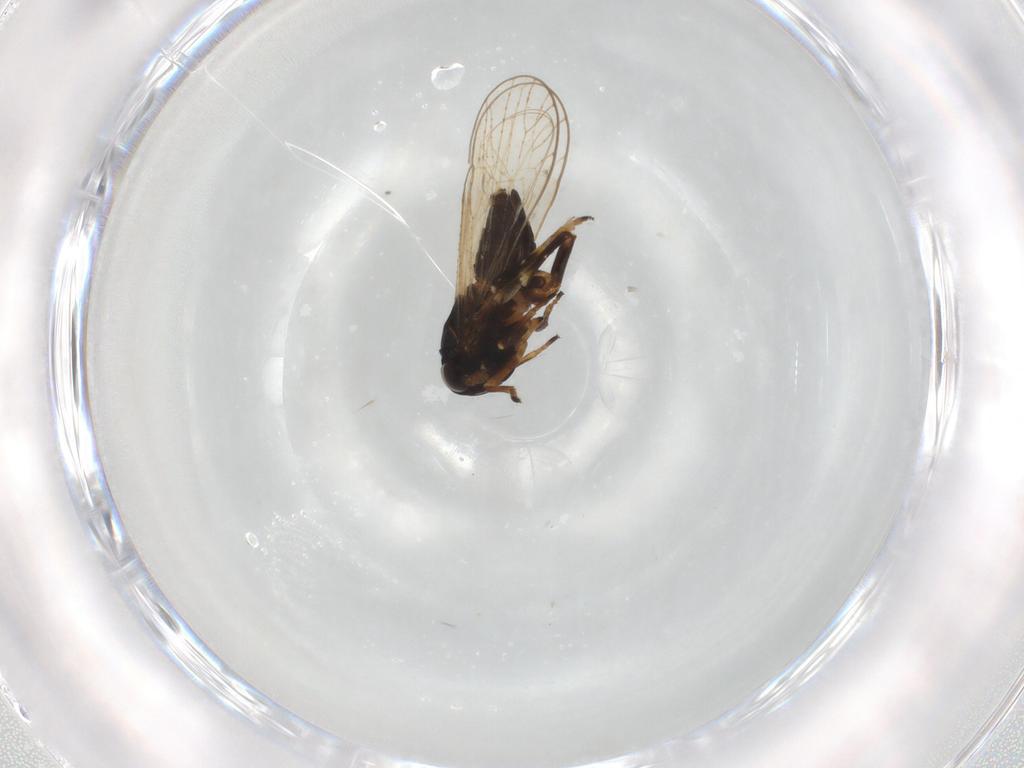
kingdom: Animalia
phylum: Arthropoda
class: Insecta
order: Hemiptera
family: Delphacidae
